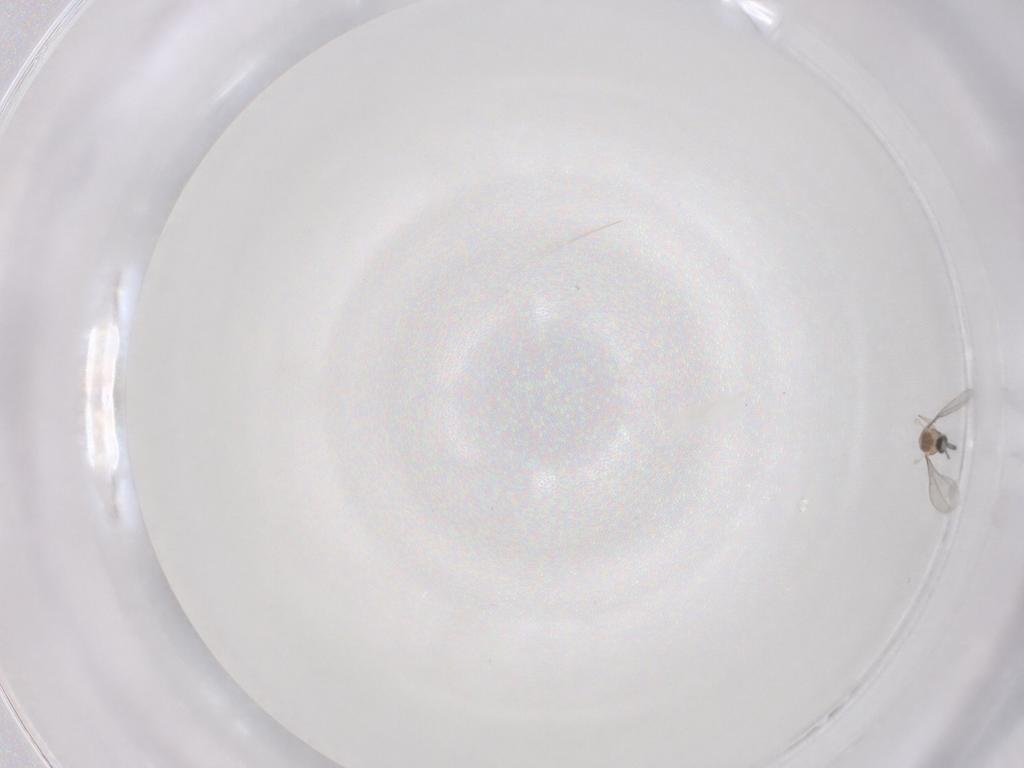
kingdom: Animalia
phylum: Arthropoda
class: Insecta
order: Diptera
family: Cecidomyiidae
